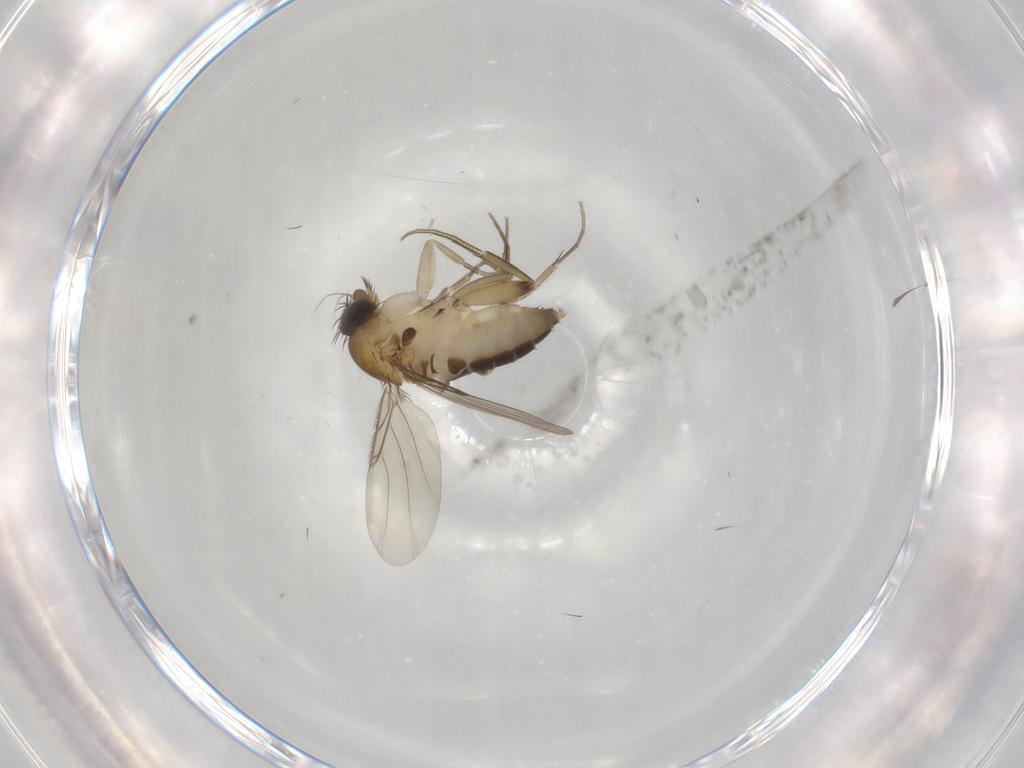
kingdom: Animalia
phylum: Arthropoda
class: Insecta
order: Diptera
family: Phoridae
